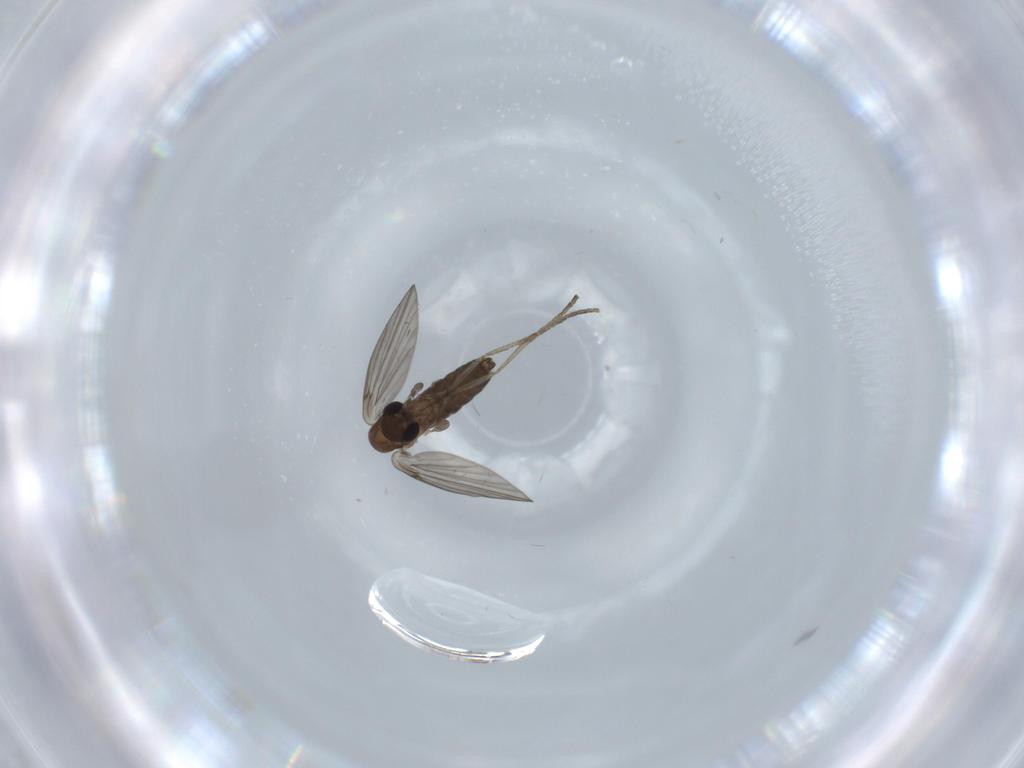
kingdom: Animalia
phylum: Arthropoda
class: Insecta
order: Diptera
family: Psychodidae
